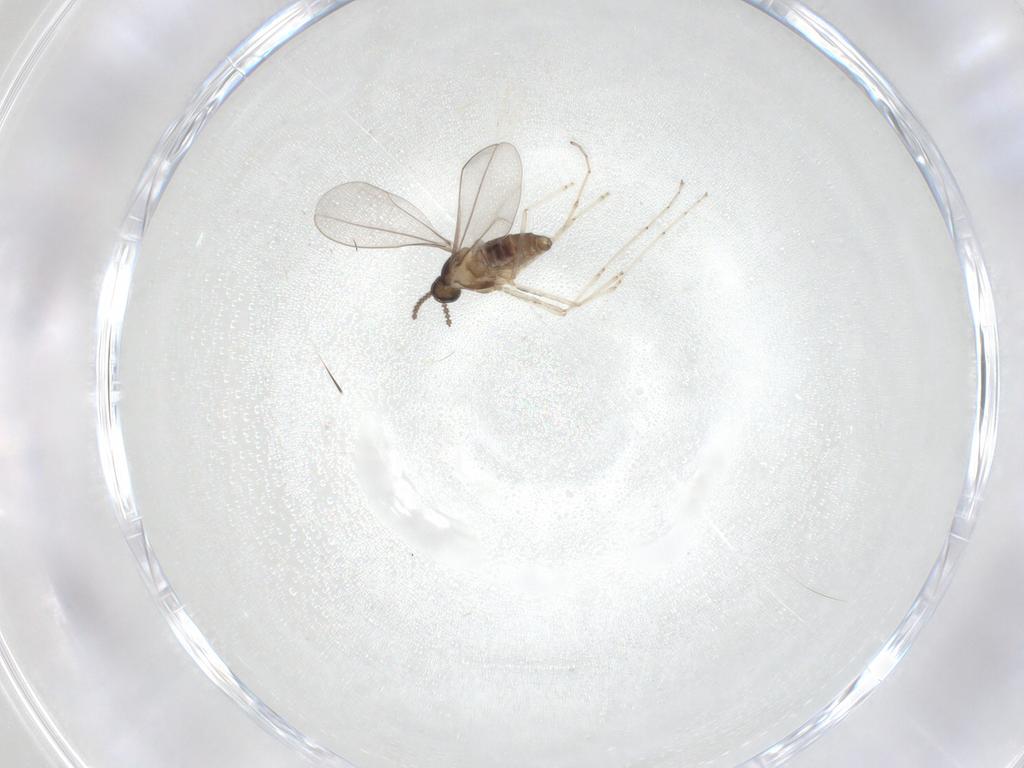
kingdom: Animalia
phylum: Arthropoda
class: Insecta
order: Diptera
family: Cecidomyiidae
